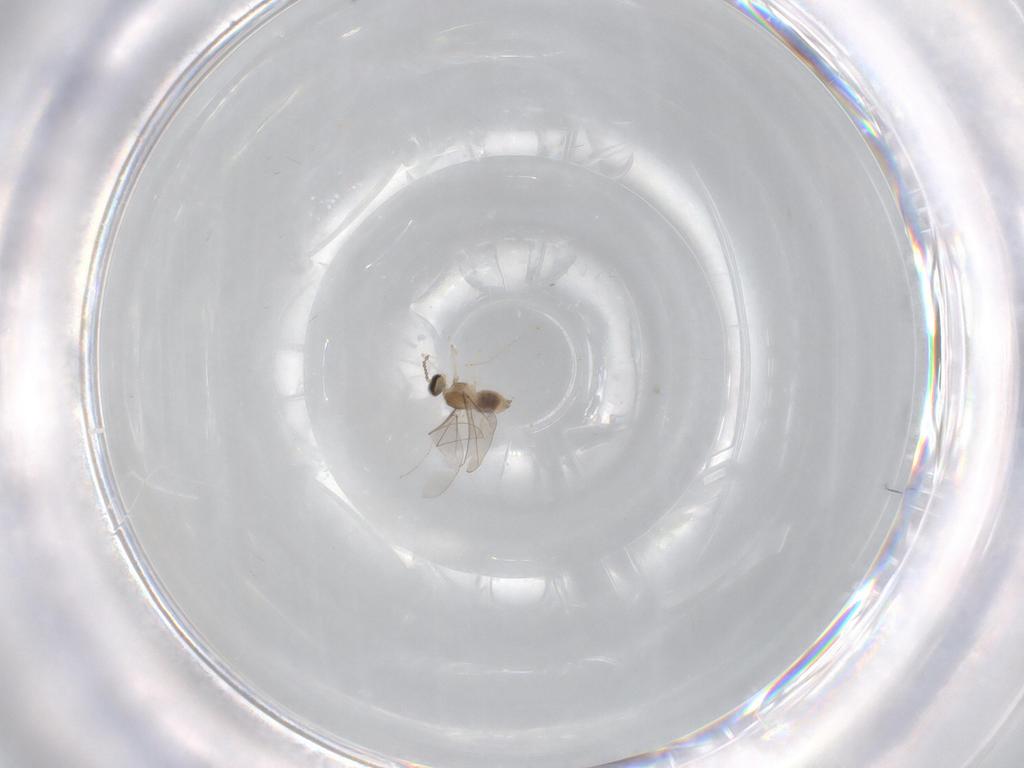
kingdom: Animalia
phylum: Arthropoda
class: Insecta
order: Diptera
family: Cecidomyiidae
